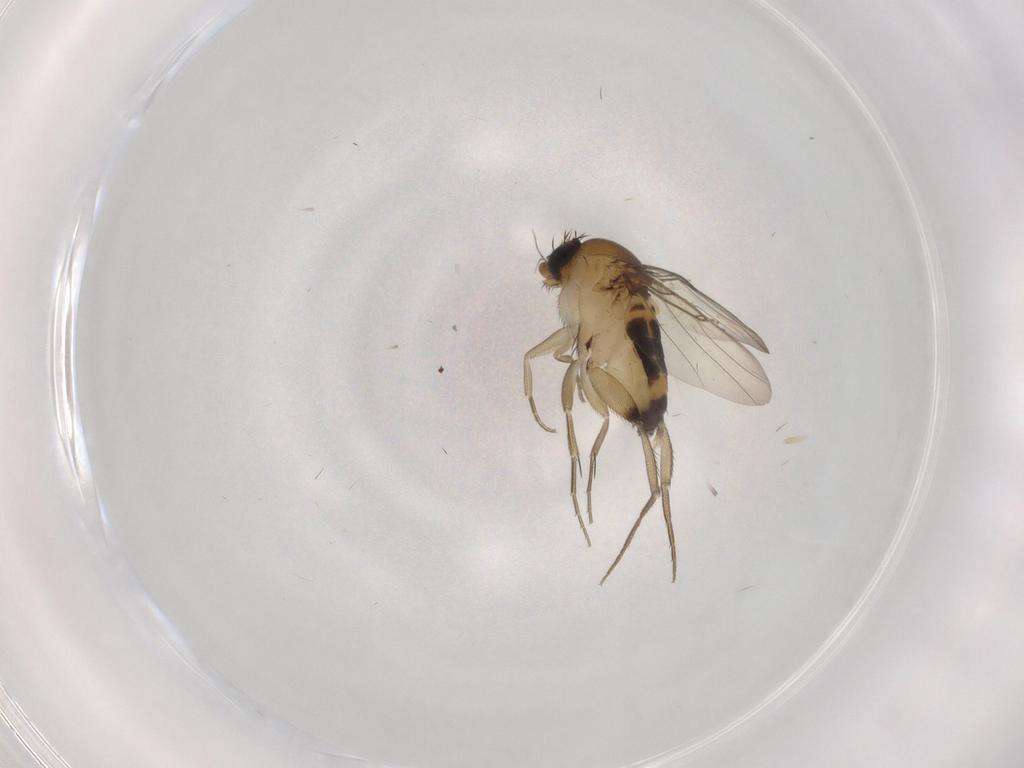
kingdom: Animalia
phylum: Arthropoda
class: Insecta
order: Diptera
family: Phoridae
